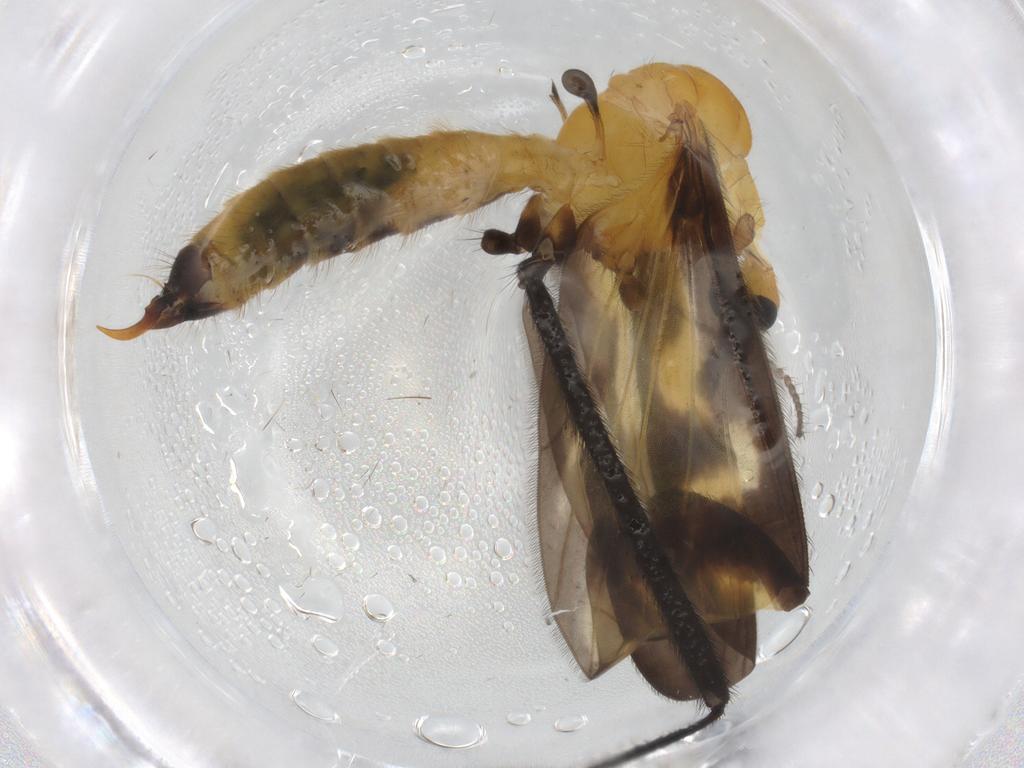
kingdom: Animalia
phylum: Arthropoda
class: Insecta
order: Diptera
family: Limoniidae
